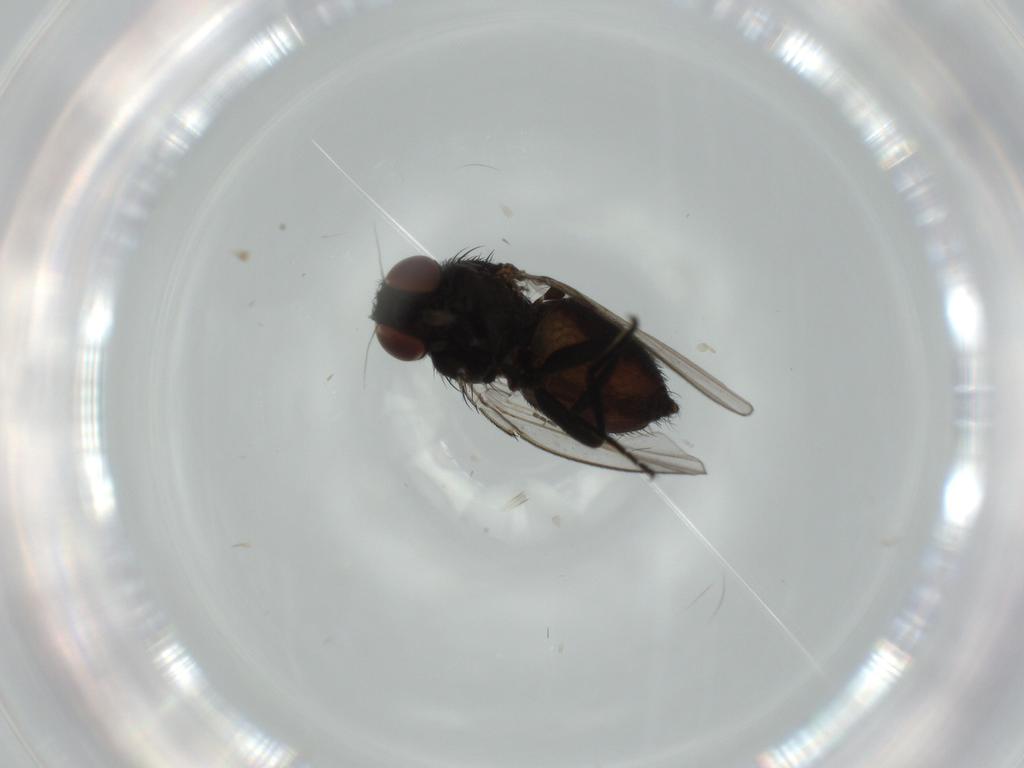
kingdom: Animalia
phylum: Arthropoda
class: Insecta
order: Diptera
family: Milichiidae
